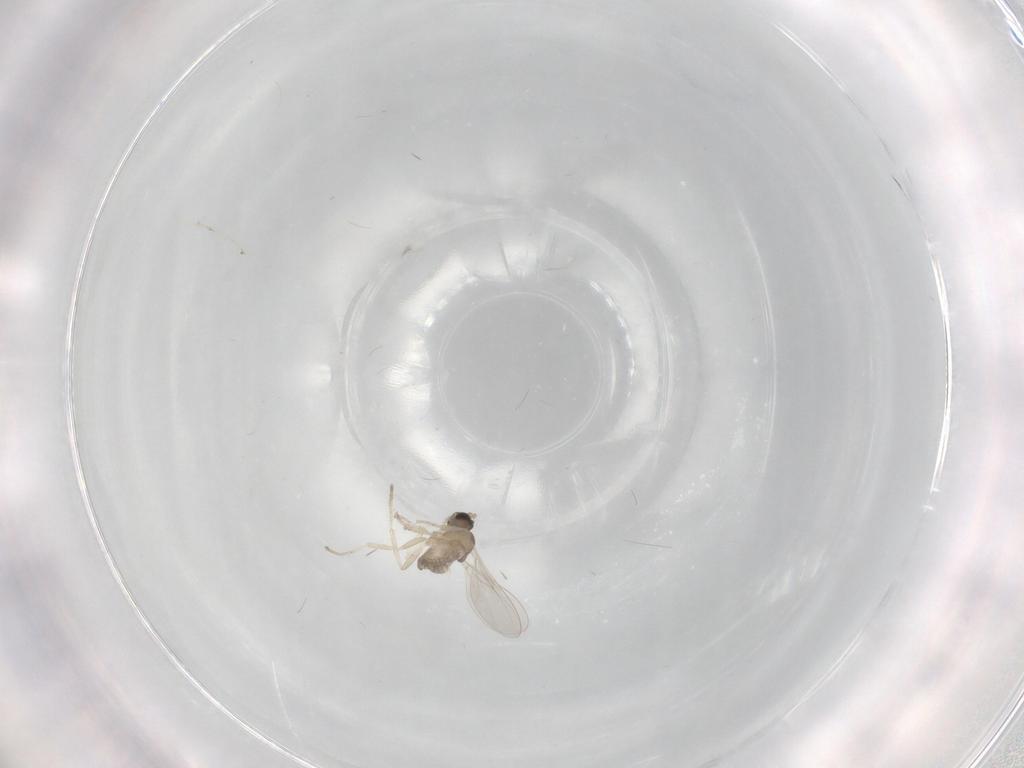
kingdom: Animalia
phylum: Arthropoda
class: Insecta
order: Diptera
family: Cecidomyiidae
